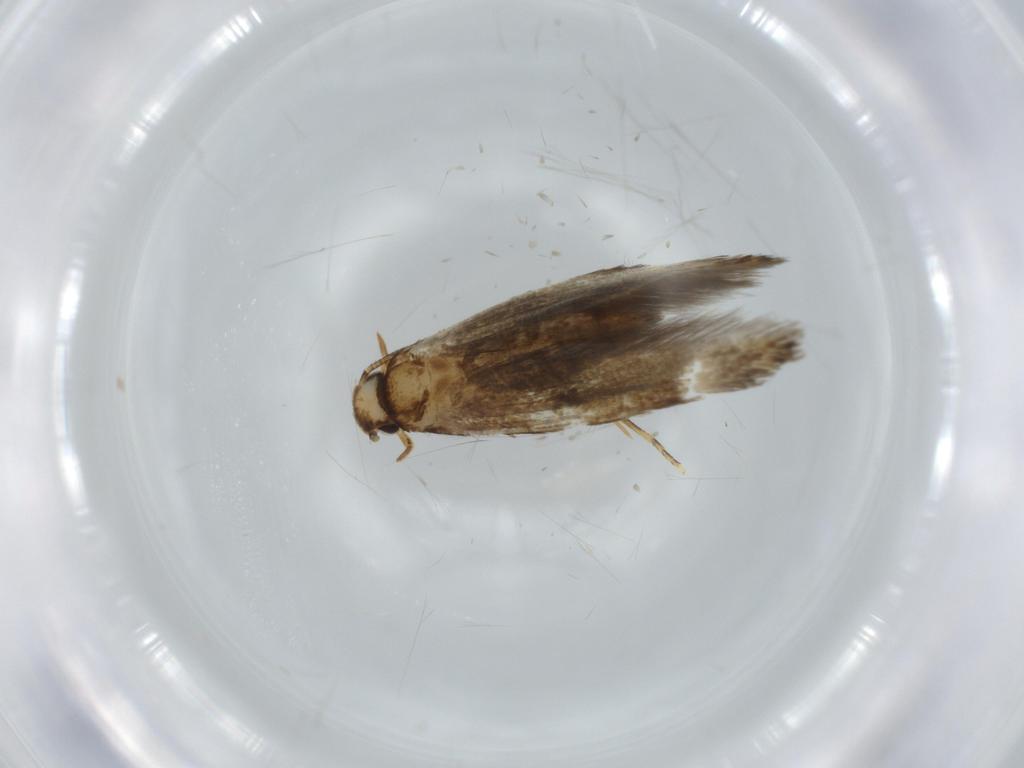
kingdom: Animalia
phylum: Arthropoda
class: Insecta
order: Lepidoptera
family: Tineidae
